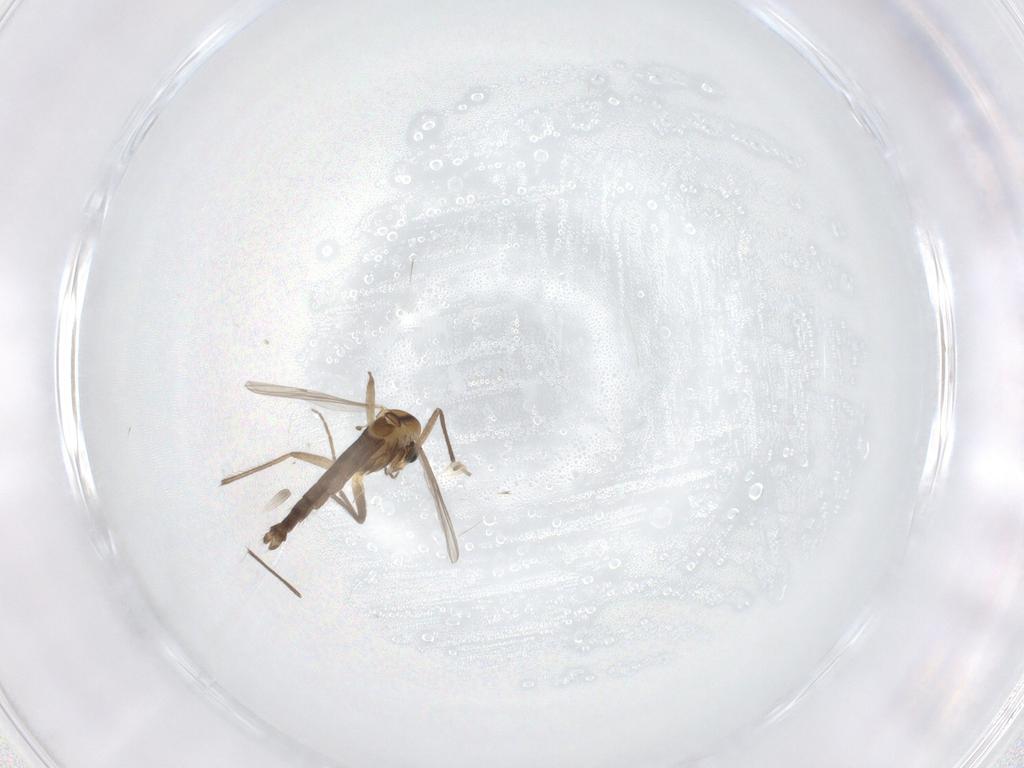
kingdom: Animalia
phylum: Arthropoda
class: Insecta
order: Diptera
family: Chironomidae
